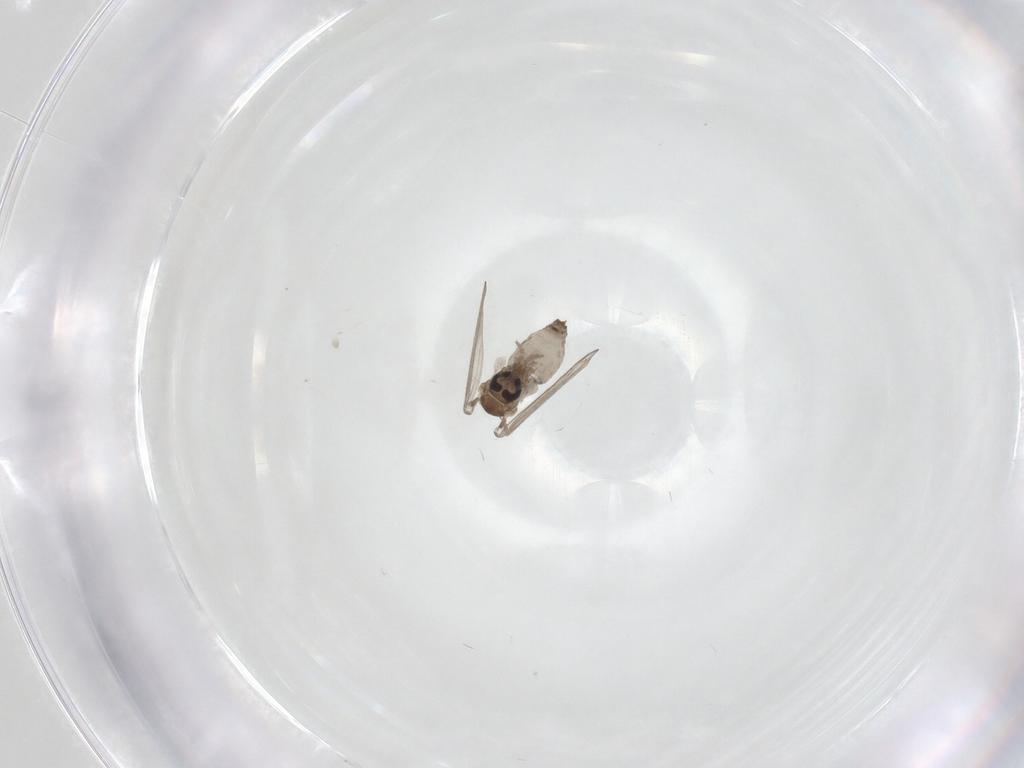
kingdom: Animalia
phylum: Arthropoda
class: Insecta
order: Diptera
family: Psychodidae
